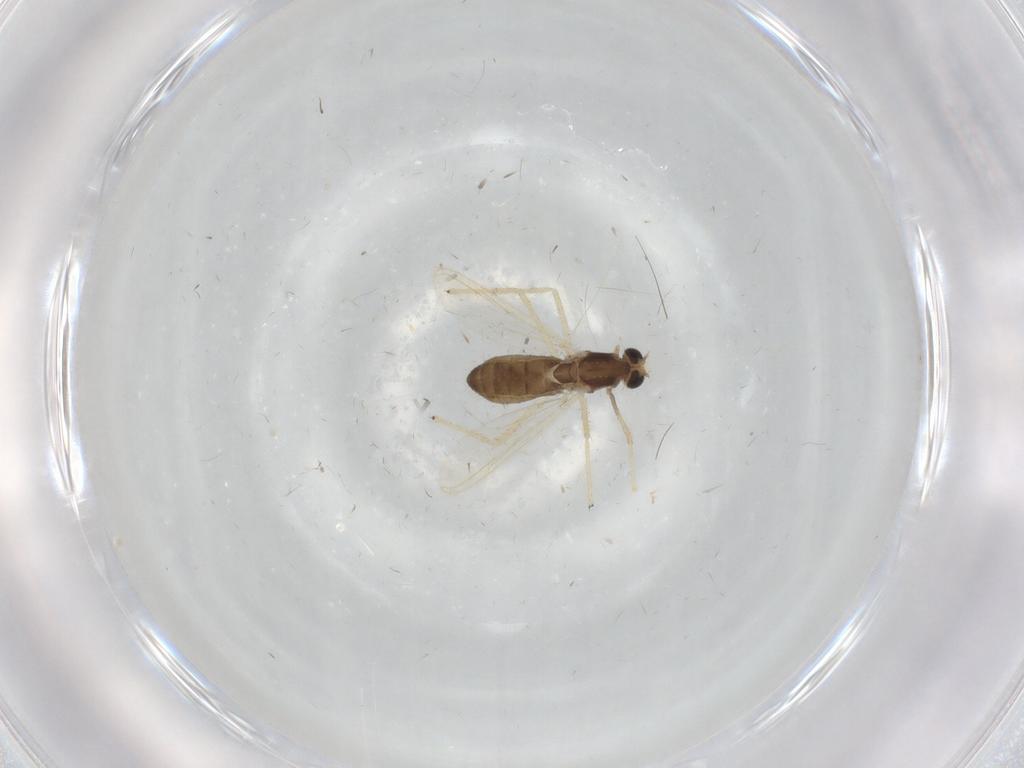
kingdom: Animalia
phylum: Arthropoda
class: Insecta
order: Diptera
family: Chironomidae
